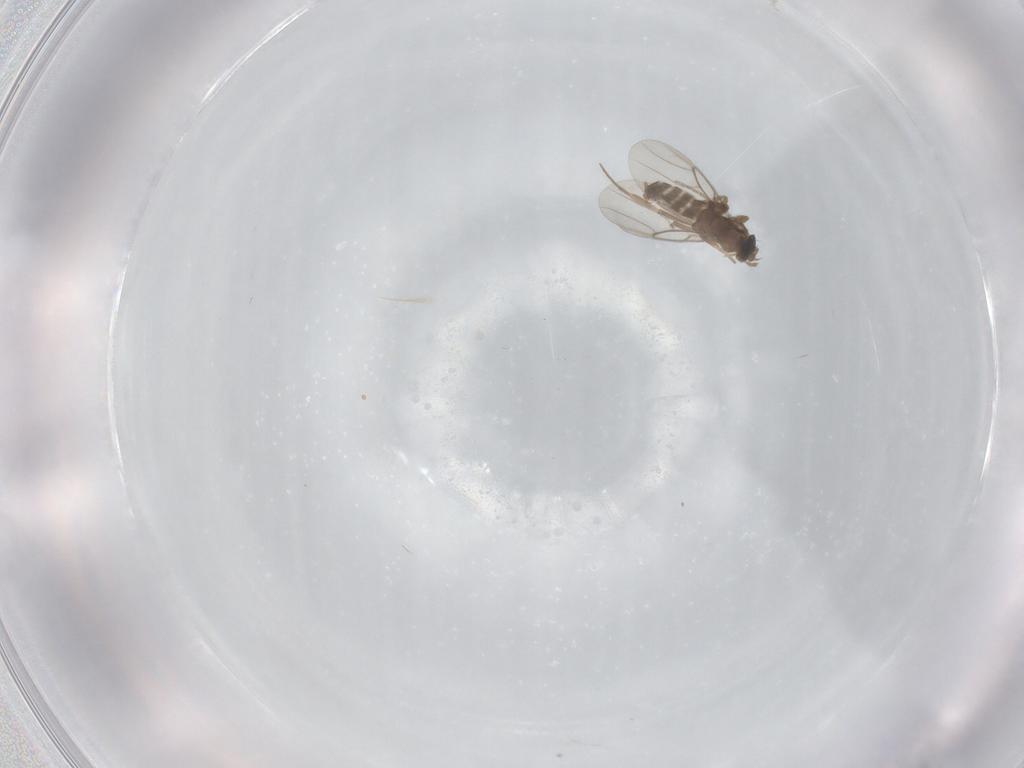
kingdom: Animalia
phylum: Arthropoda
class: Insecta
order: Diptera
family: Phoridae
